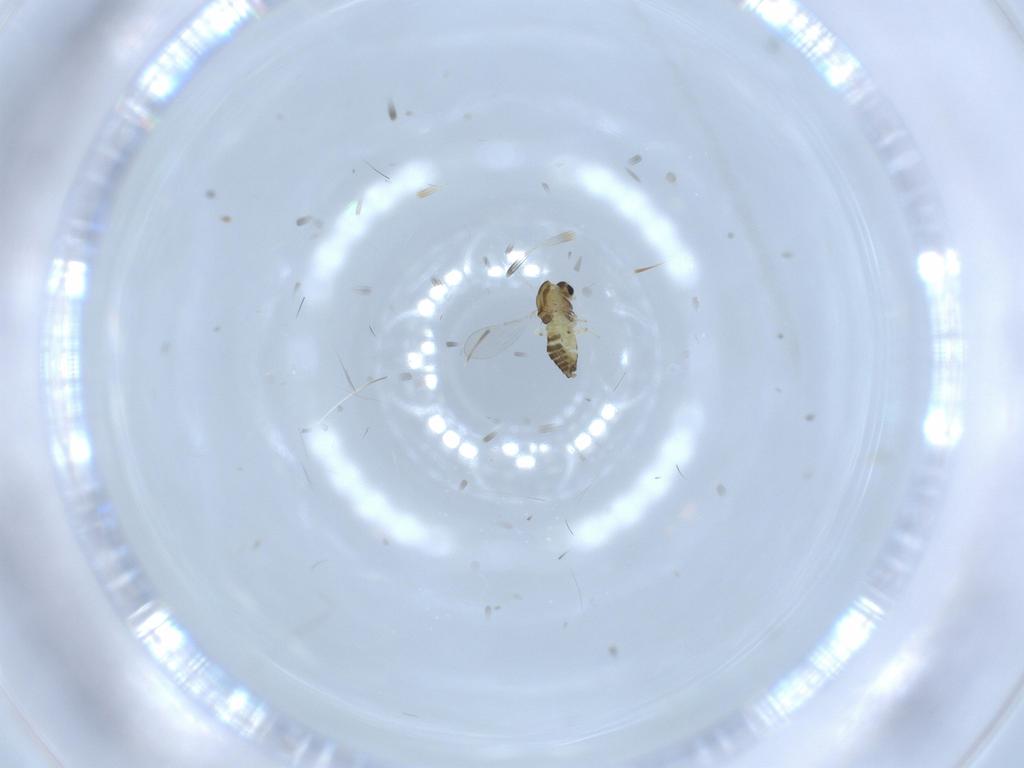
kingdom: Animalia
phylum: Arthropoda
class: Insecta
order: Diptera
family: Chironomidae
